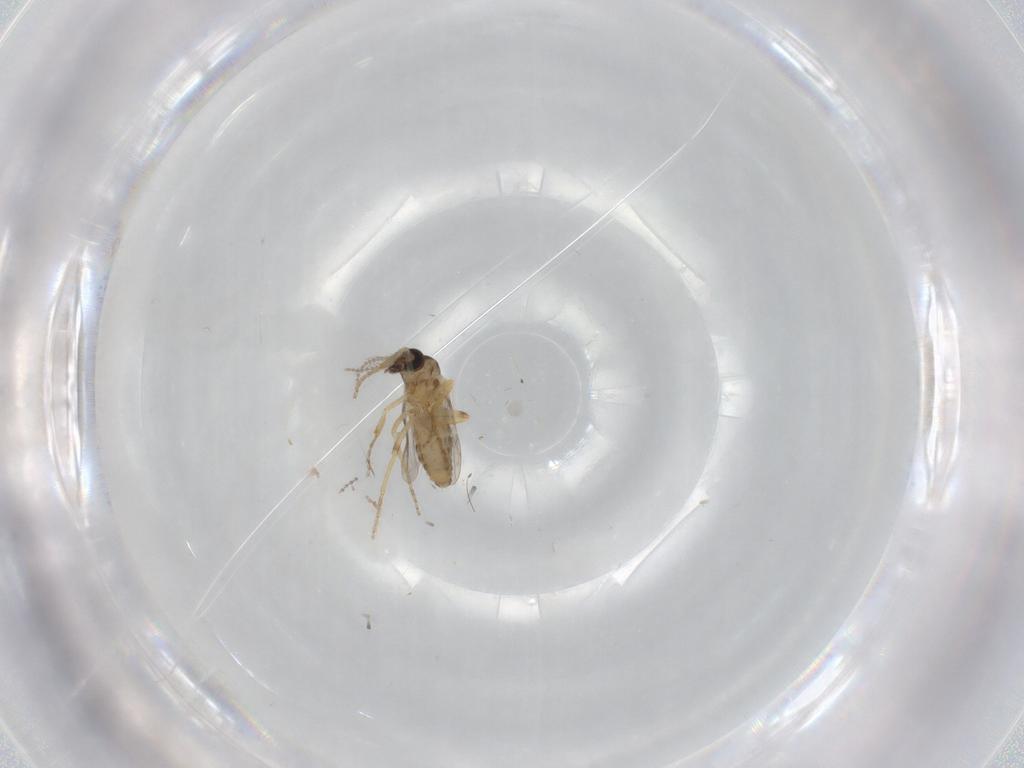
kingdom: Animalia
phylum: Arthropoda
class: Insecta
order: Diptera
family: Ceratopogonidae
